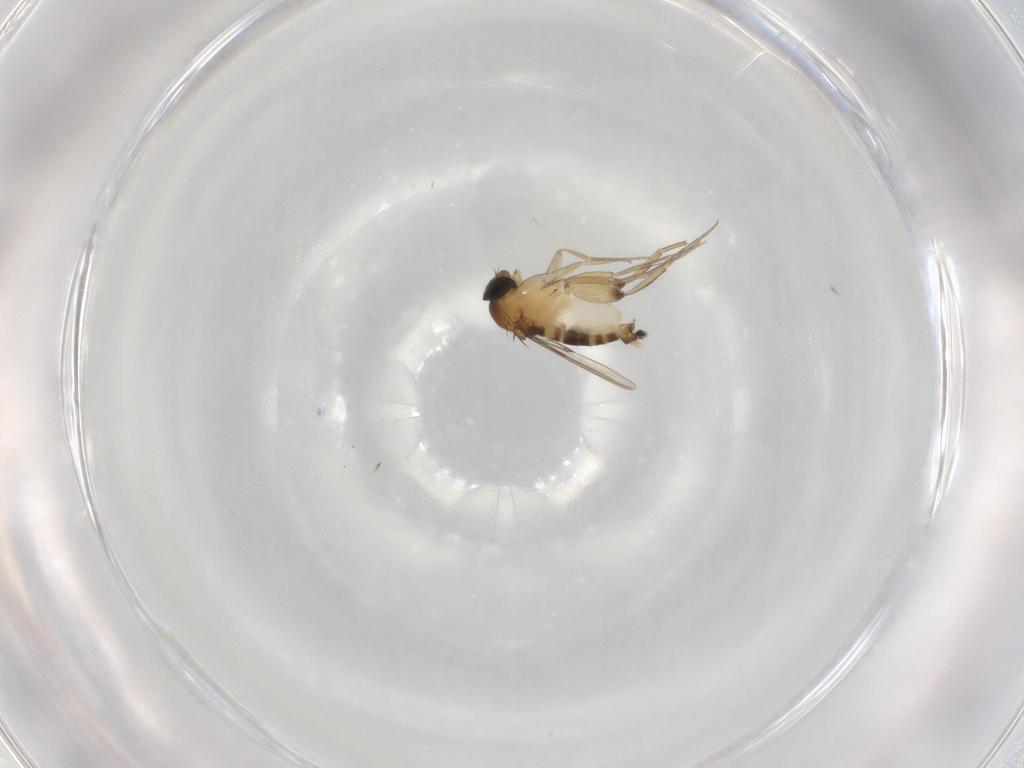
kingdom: Animalia
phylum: Arthropoda
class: Insecta
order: Diptera
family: Phoridae
